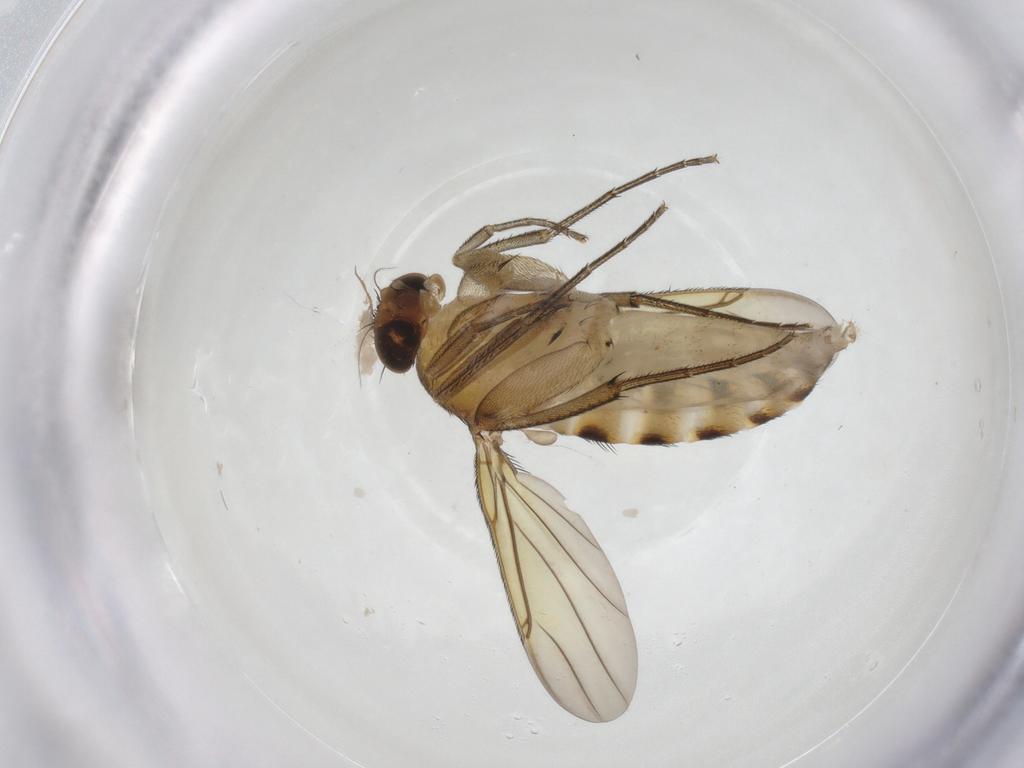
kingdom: Animalia
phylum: Arthropoda
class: Insecta
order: Diptera
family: Phoridae
